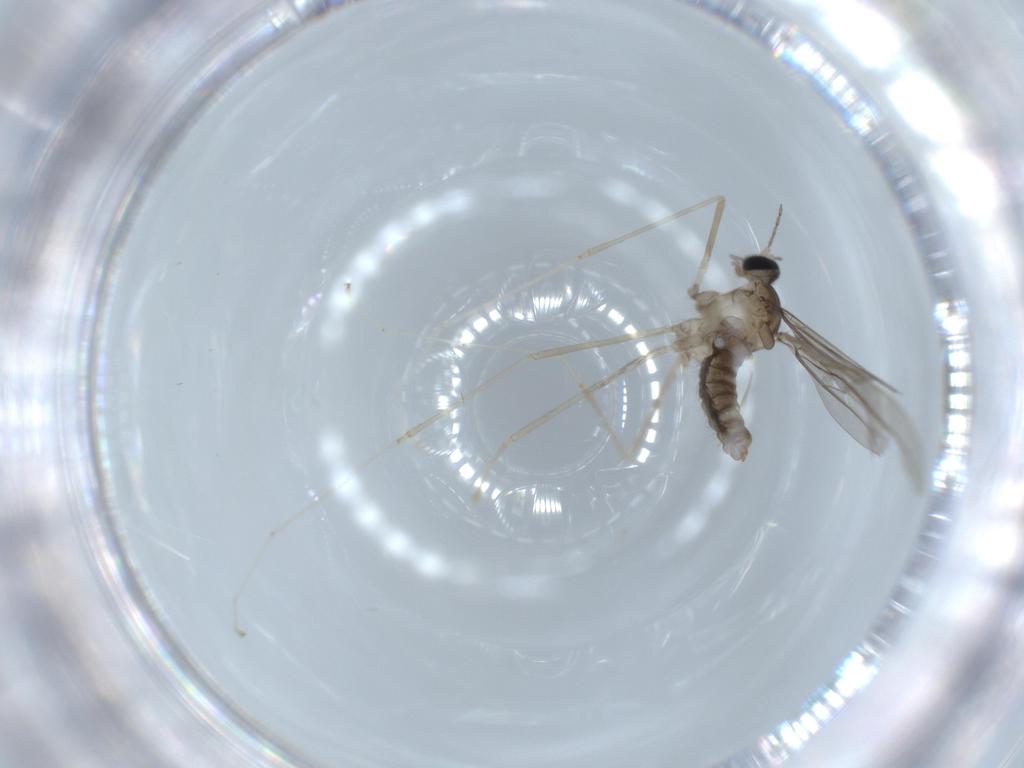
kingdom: Animalia
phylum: Arthropoda
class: Insecta
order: Diptera
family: Cecidomyiidae
